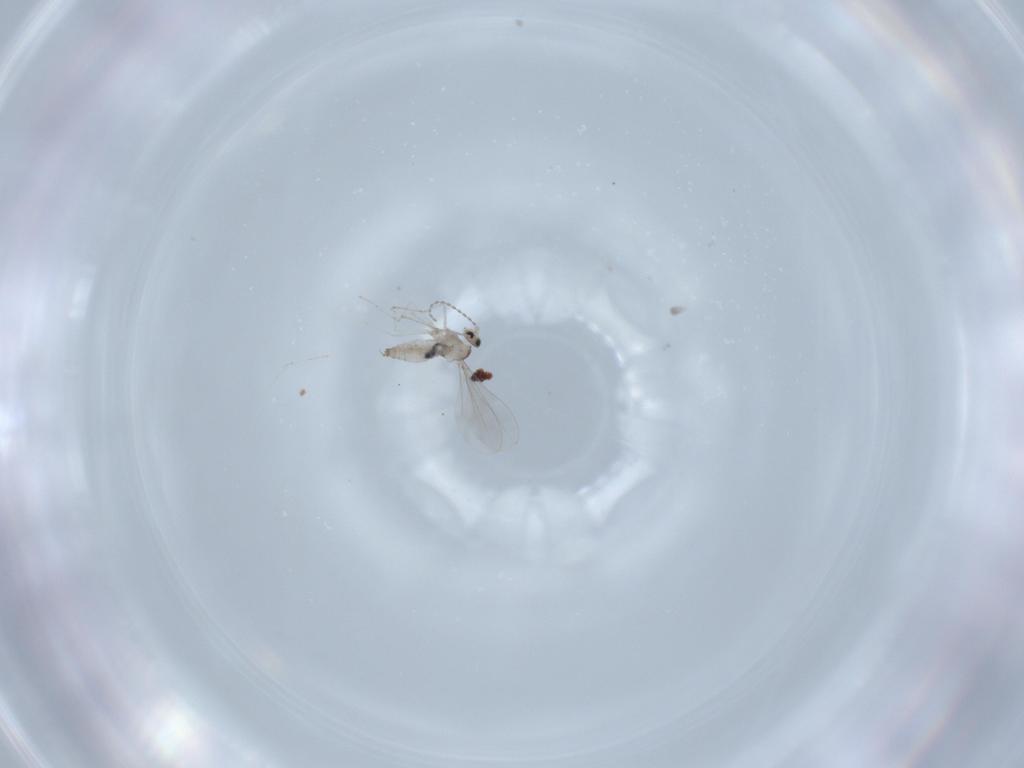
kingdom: Animalia
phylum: Arthropoda
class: Insecta
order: Diptera
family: Cecidomyiidae
